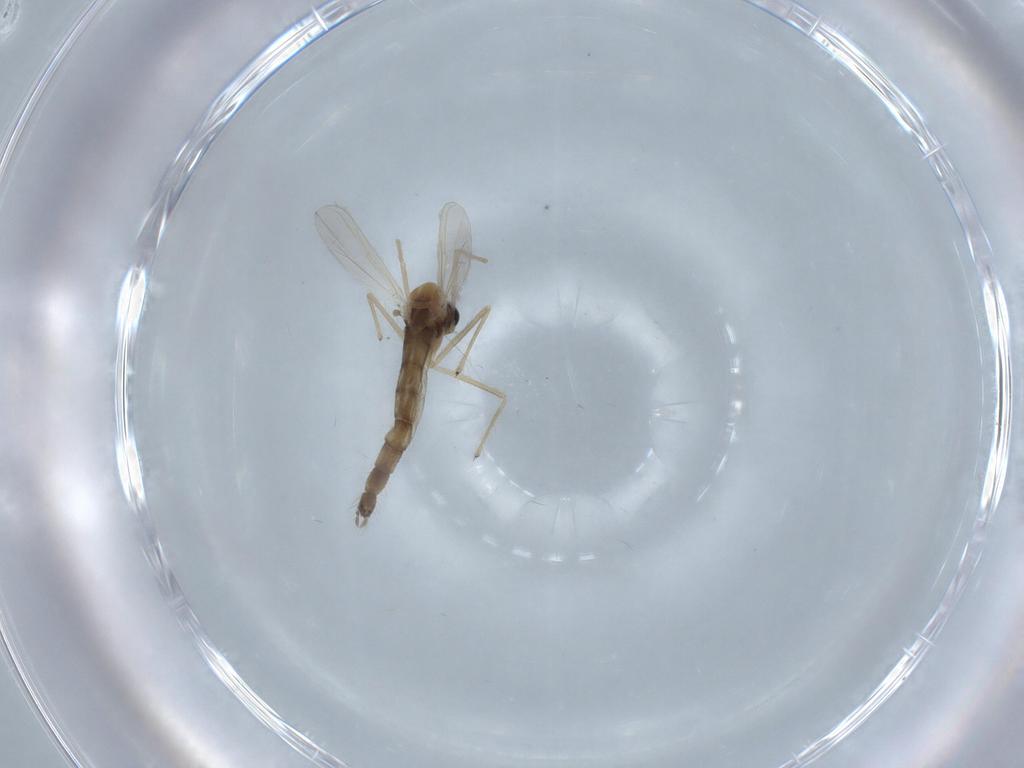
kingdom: Animalia
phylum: Arthropoda
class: Insecta
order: Diptera
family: Chironomidae
